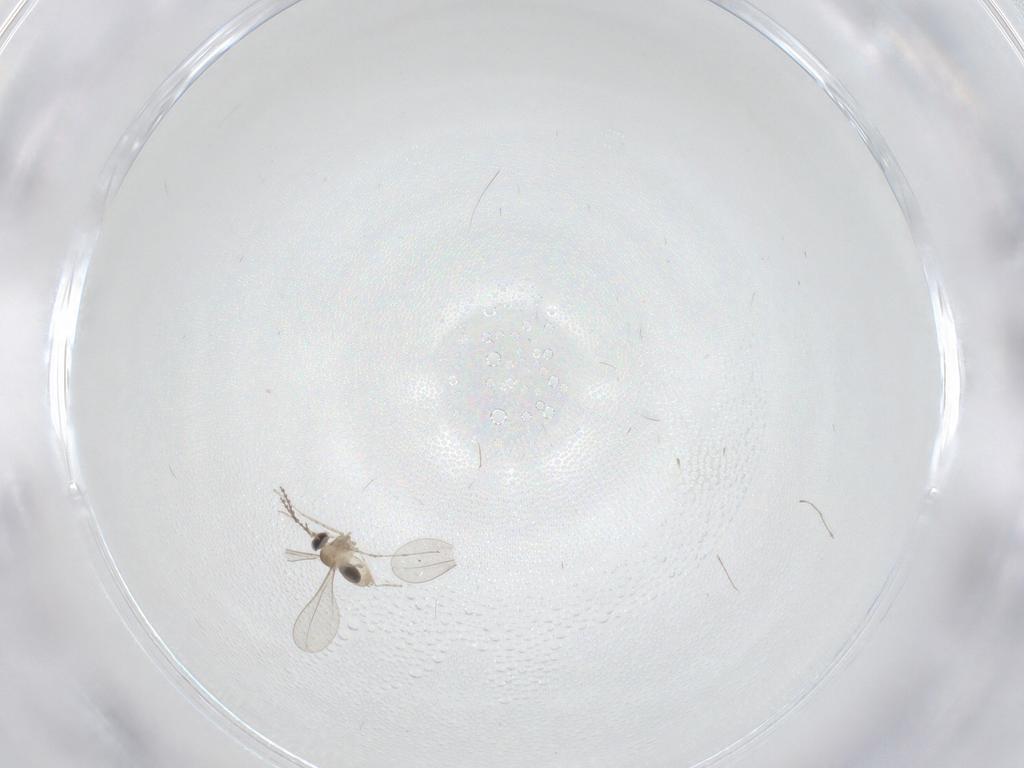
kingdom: Animalia
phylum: Arthropoda
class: Insecta
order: Diptera
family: Cecidomyiidae
